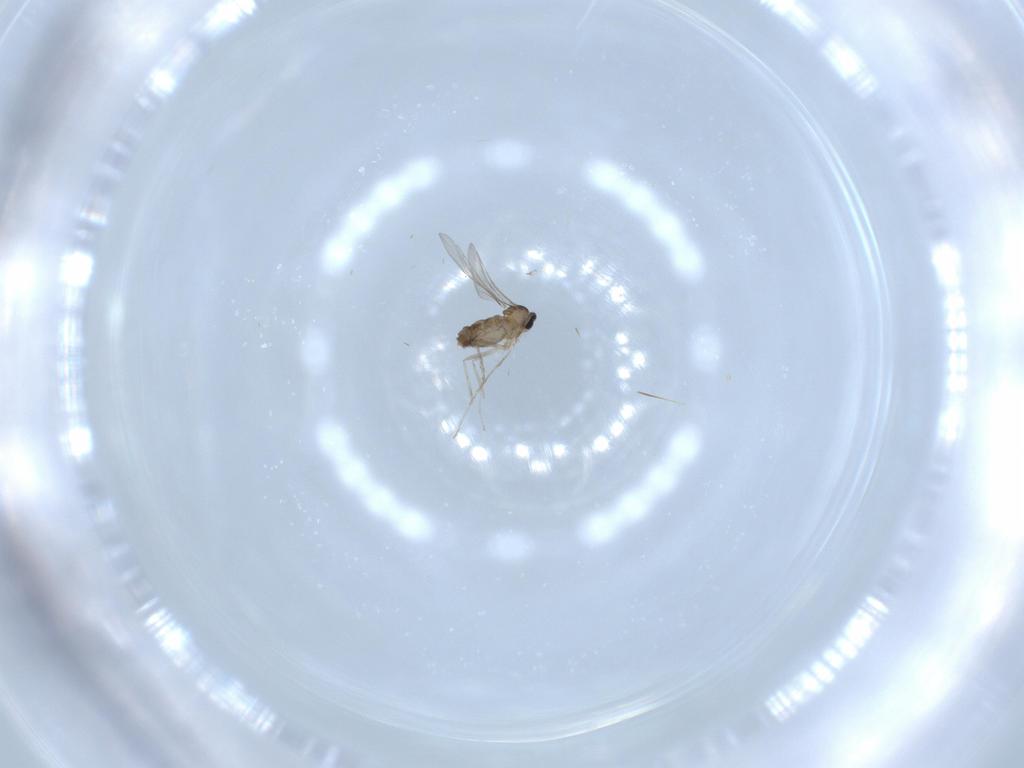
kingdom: Animalia
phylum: Arthropoda
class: Insecta
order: Diptera
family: Cecidomyiidae
